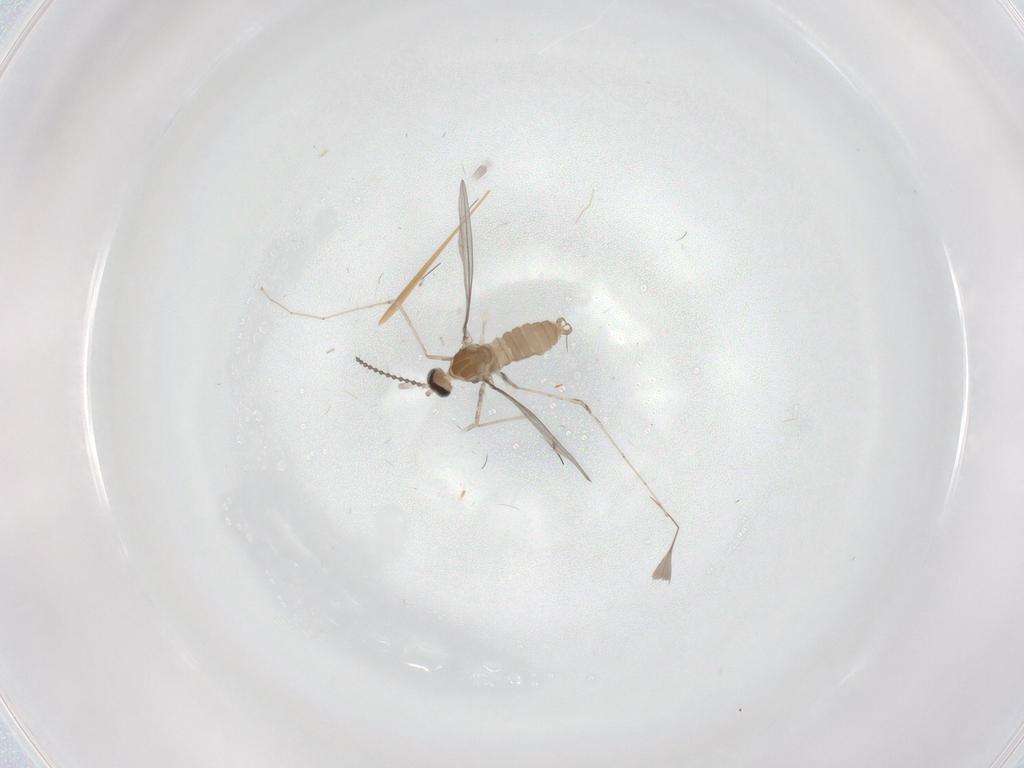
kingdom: Animalia
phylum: Arthropoda
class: Insecta
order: Diptera
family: Cecidomyiidae
